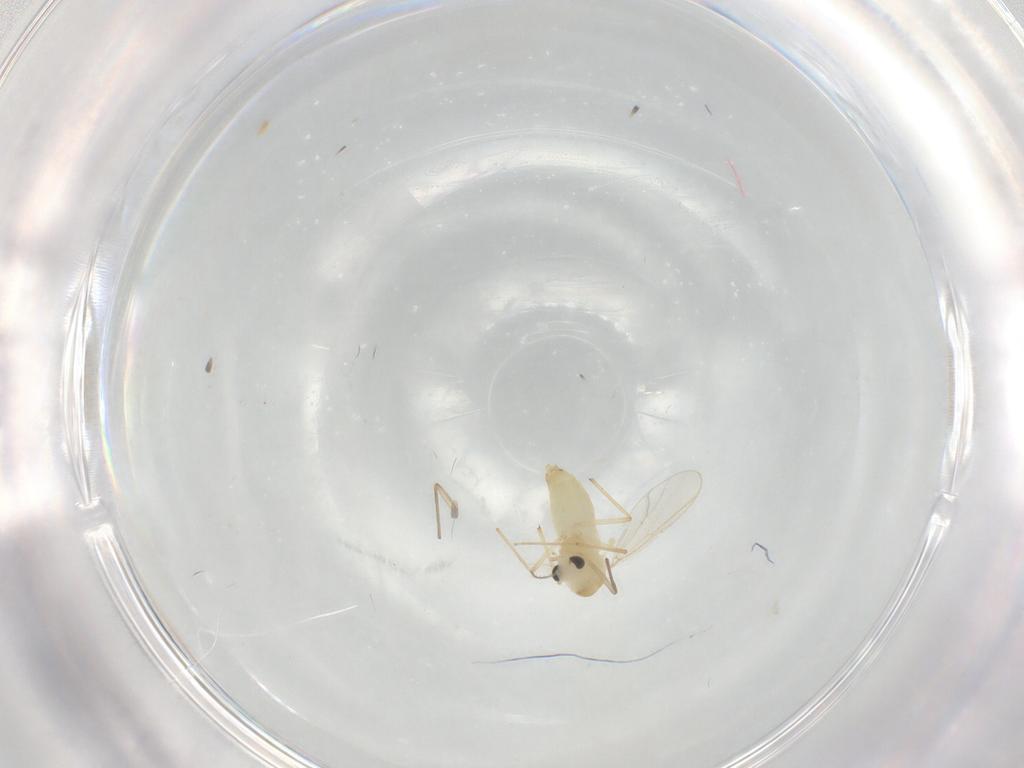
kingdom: Animalia
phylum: Arthropoda
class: Insecta
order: Diptera
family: Chironomidae
